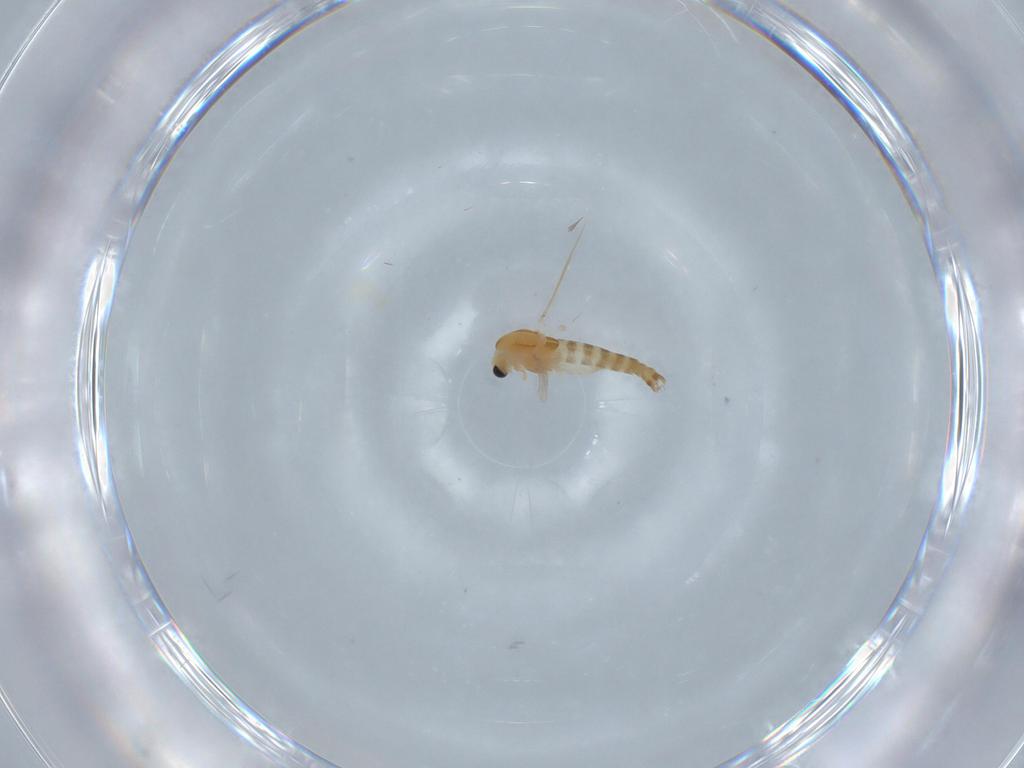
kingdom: Animalia
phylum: Arthropoda
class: Insecta
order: Diptera
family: Chironomidae
